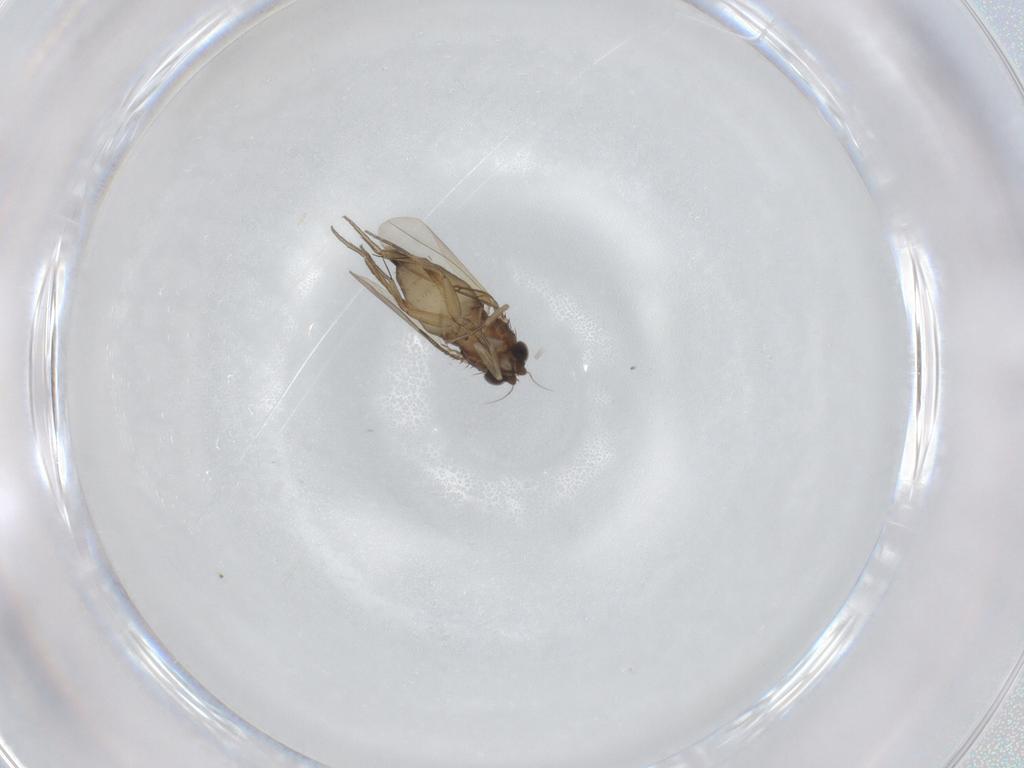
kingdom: Animalia
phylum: Arthropoda
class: Insecta
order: Diptera
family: Phoridae
